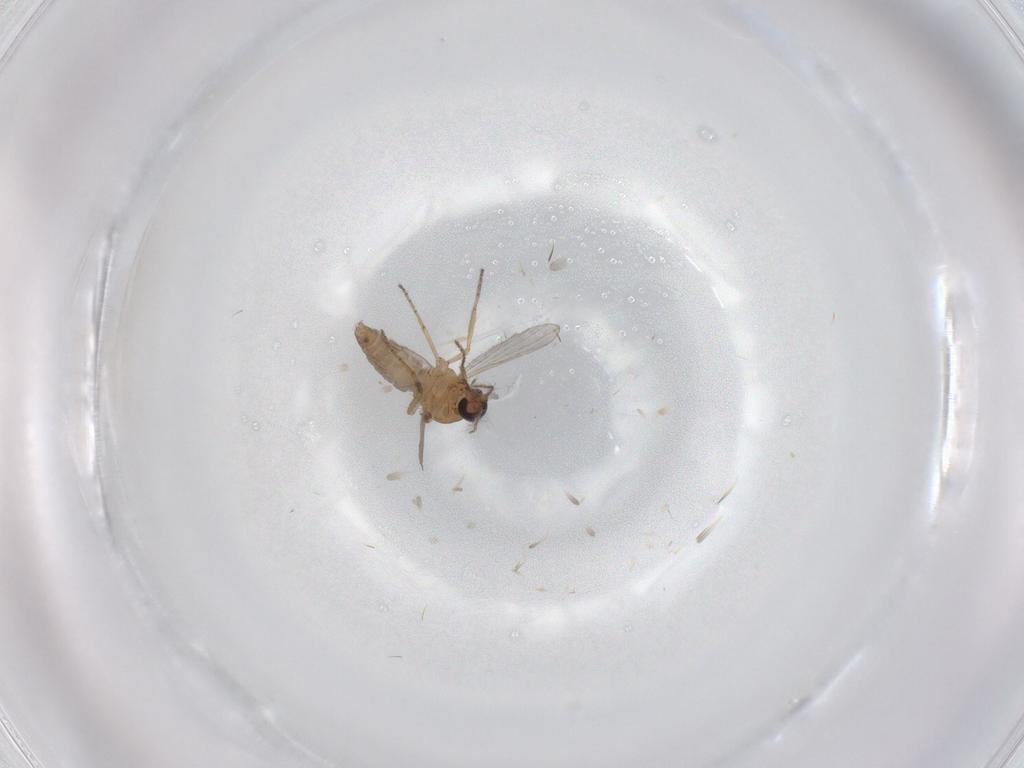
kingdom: Animalia
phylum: Arthropoda
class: Insecta
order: Diptera
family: Ceratopogonidae
